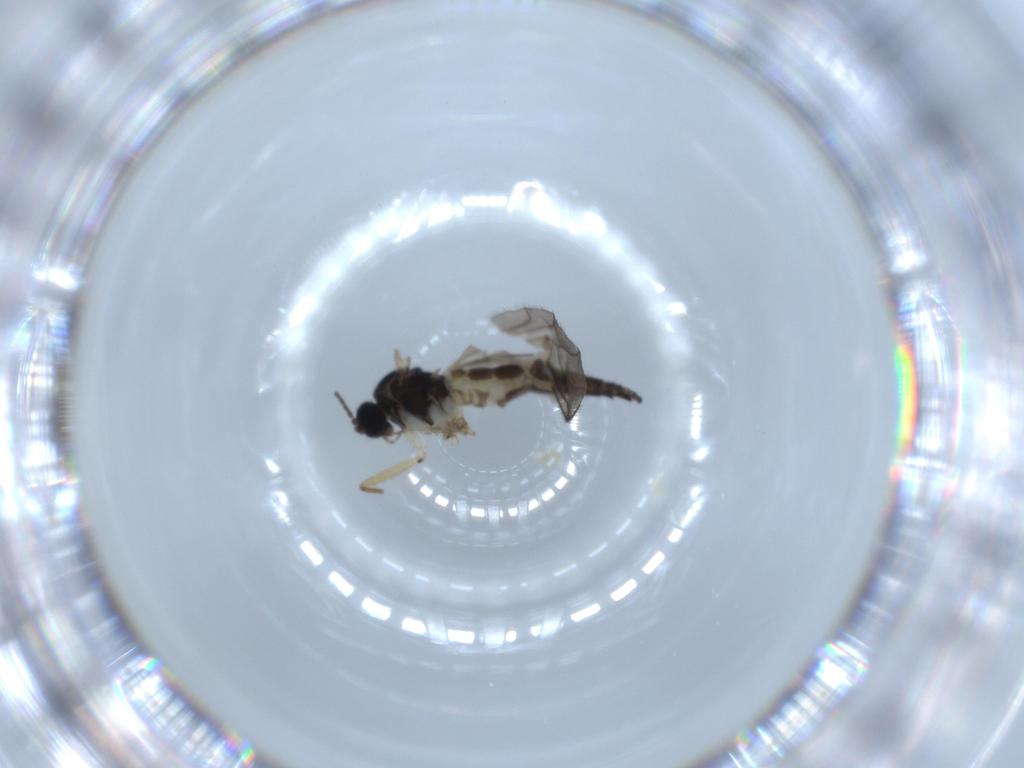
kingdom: Animalia
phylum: Arthropoda
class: Insecta
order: Diptera
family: Sciaridae
